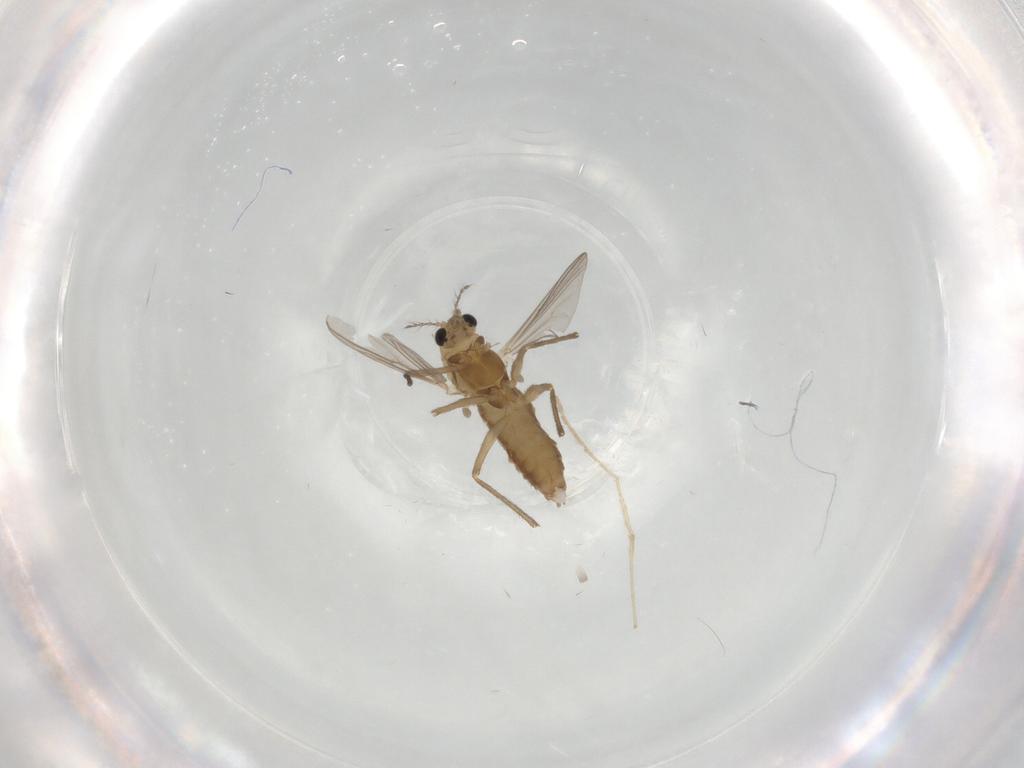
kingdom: Animalia
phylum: Arthropoda
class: Insecta
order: Diptera
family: Chironomidae
